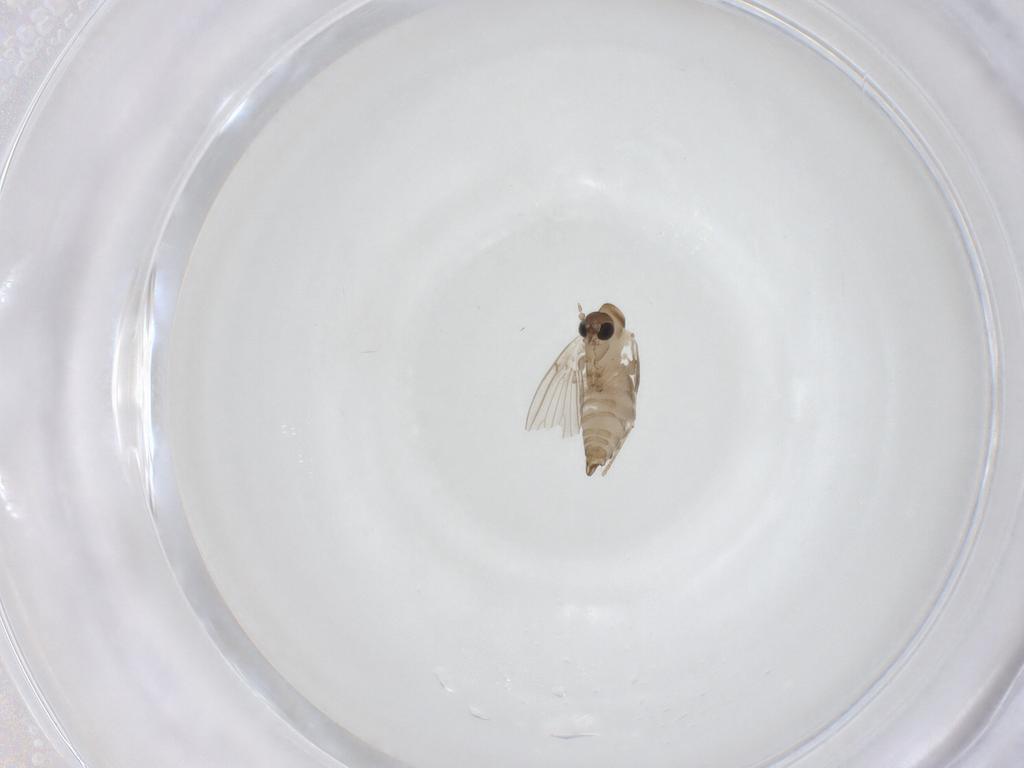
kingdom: Animalia
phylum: Arthropoda
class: Insecta
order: Diptera
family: Psychodidae
